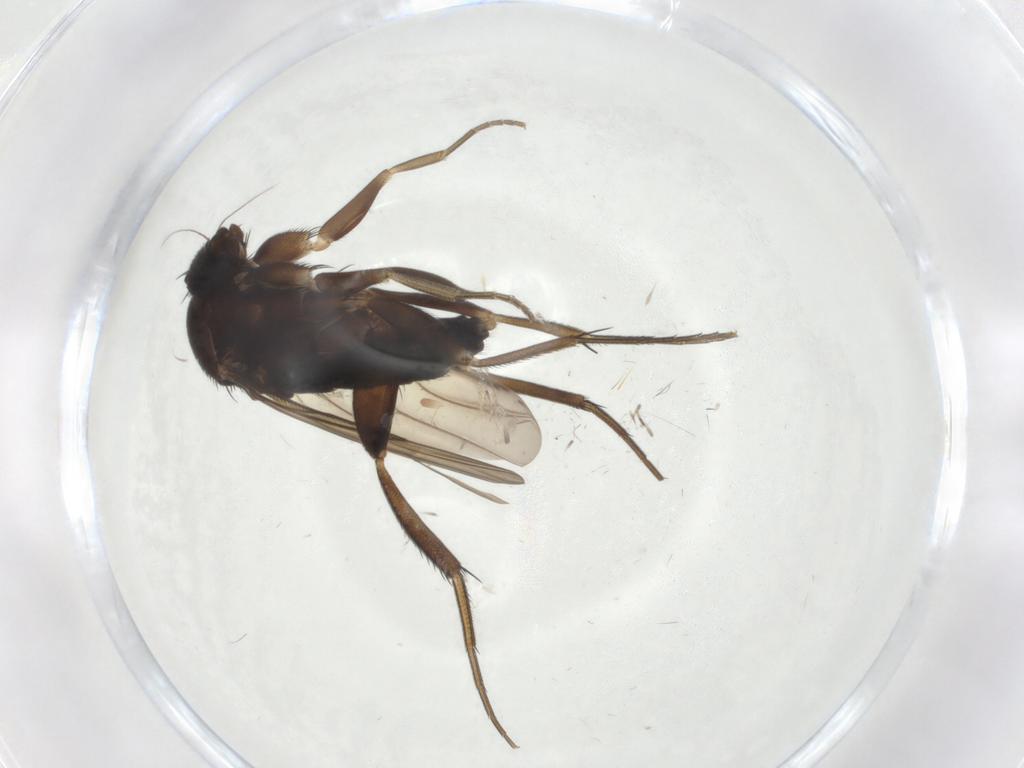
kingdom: Animalia
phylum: Arthropoda
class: Insecta
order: Diptera
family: Phoridae
